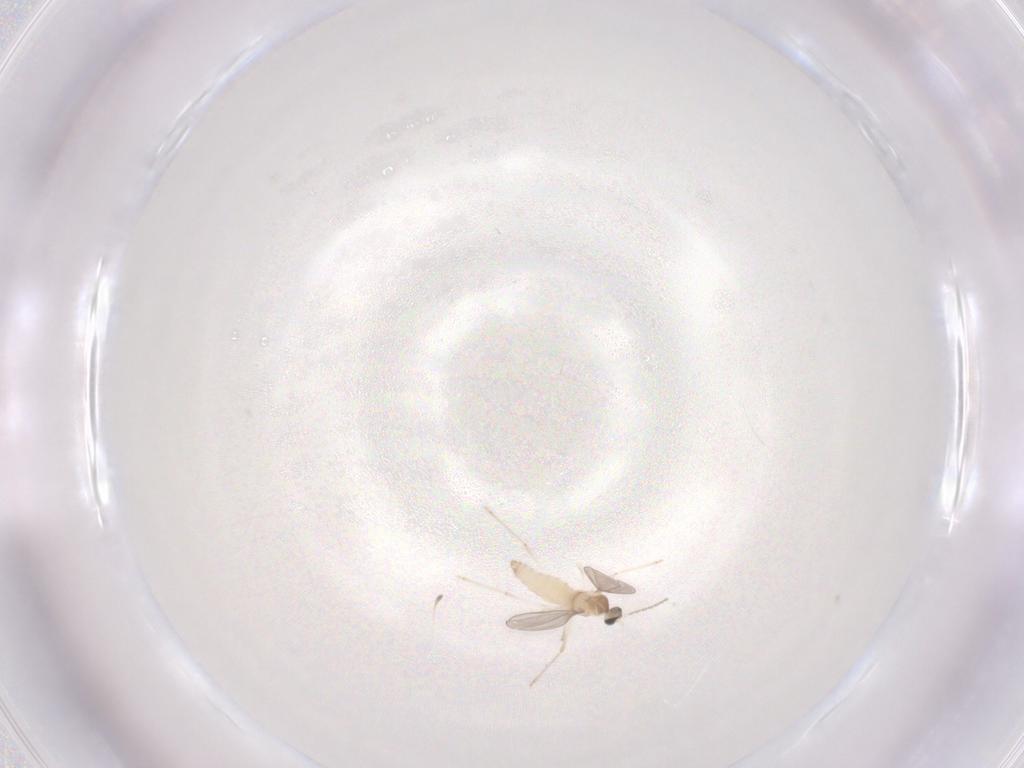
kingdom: Animalia
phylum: Arthropoda
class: Insecta
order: Diptera
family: Cecidomyiidae
